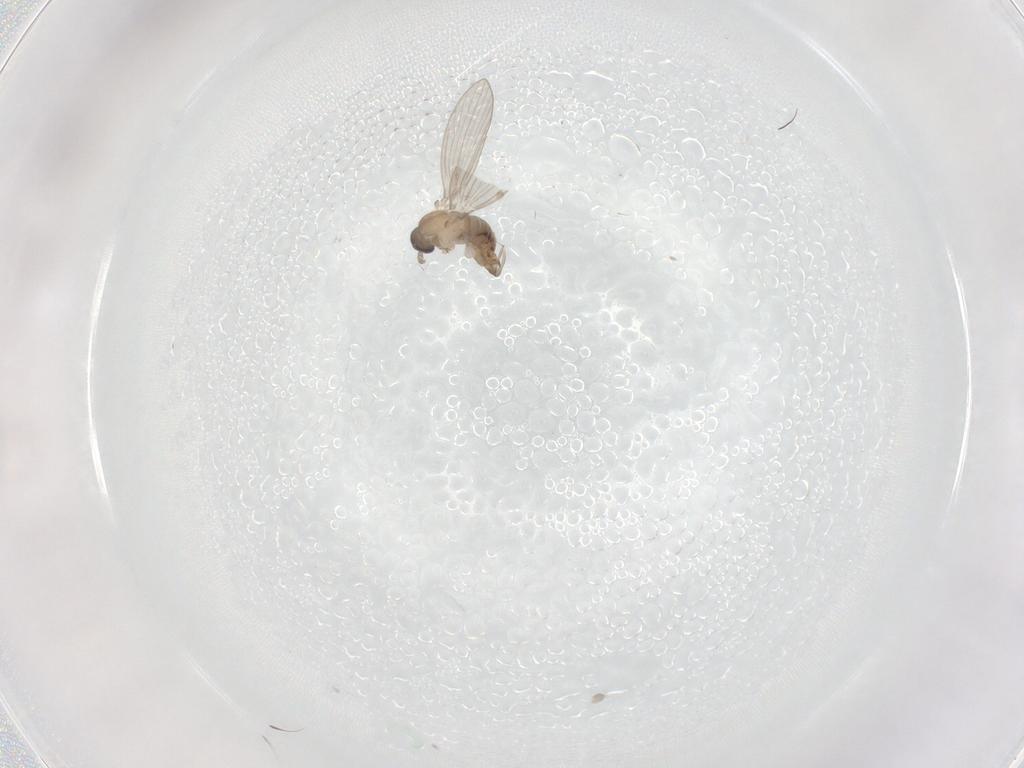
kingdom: Animalia
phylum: Arthropoda
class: Insecta
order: Diptera
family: Psychodidae
